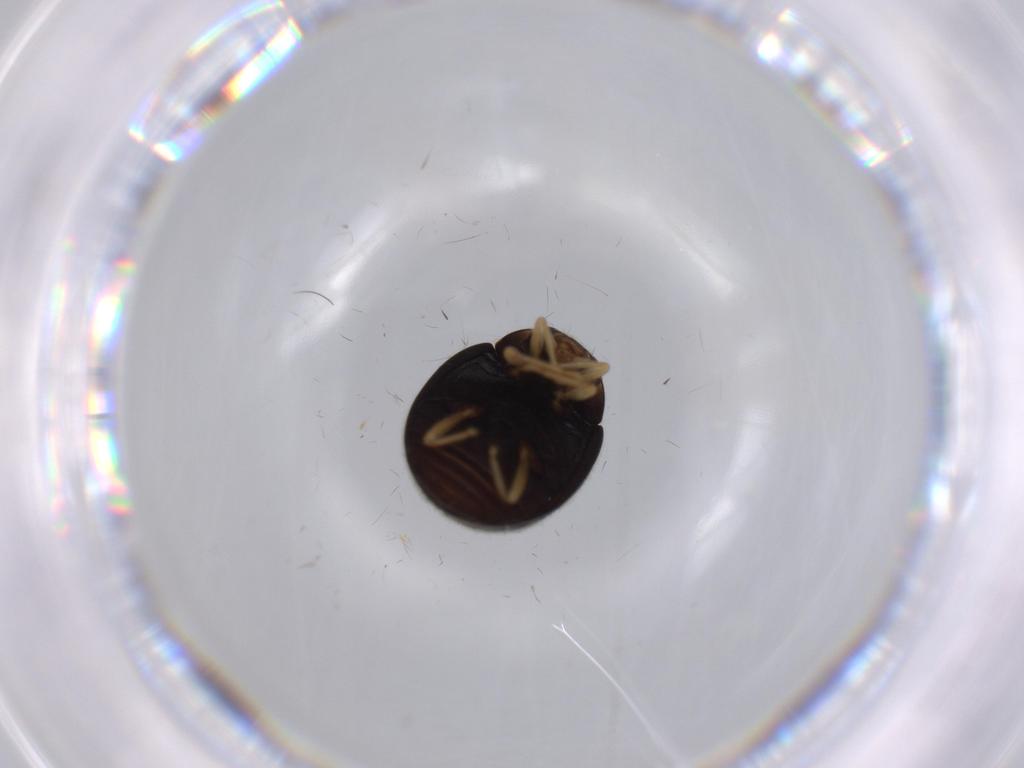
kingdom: Animalia
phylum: Arthropoda
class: Insecta
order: Coleoptera
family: Coccinellidae
